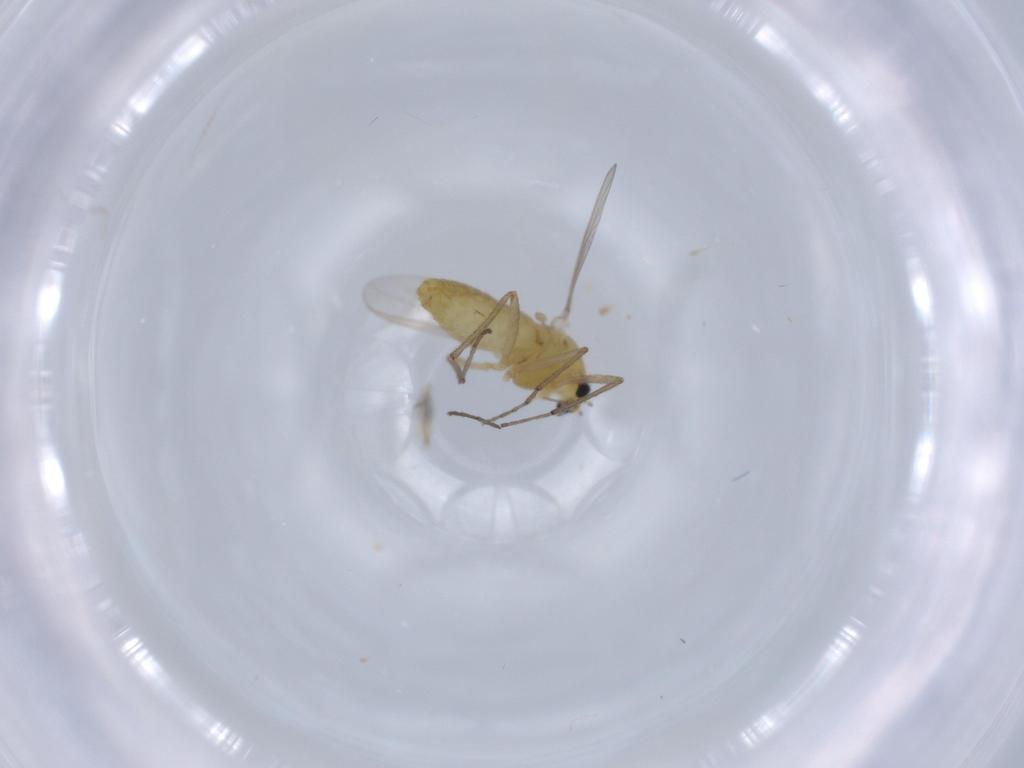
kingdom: Animalia
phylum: Arthropoda
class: Insecta
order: Diptera
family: Chironomidae
